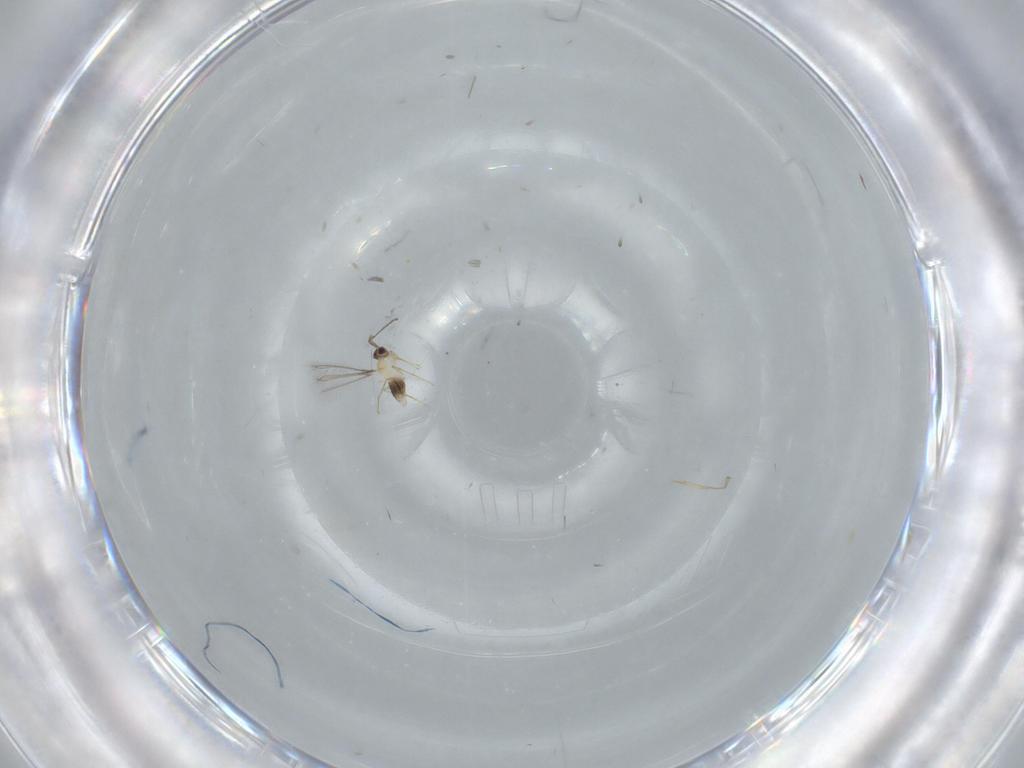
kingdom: Animalia
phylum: Arthropoda
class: Insecta
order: Hymenoptera
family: Mymaridae
